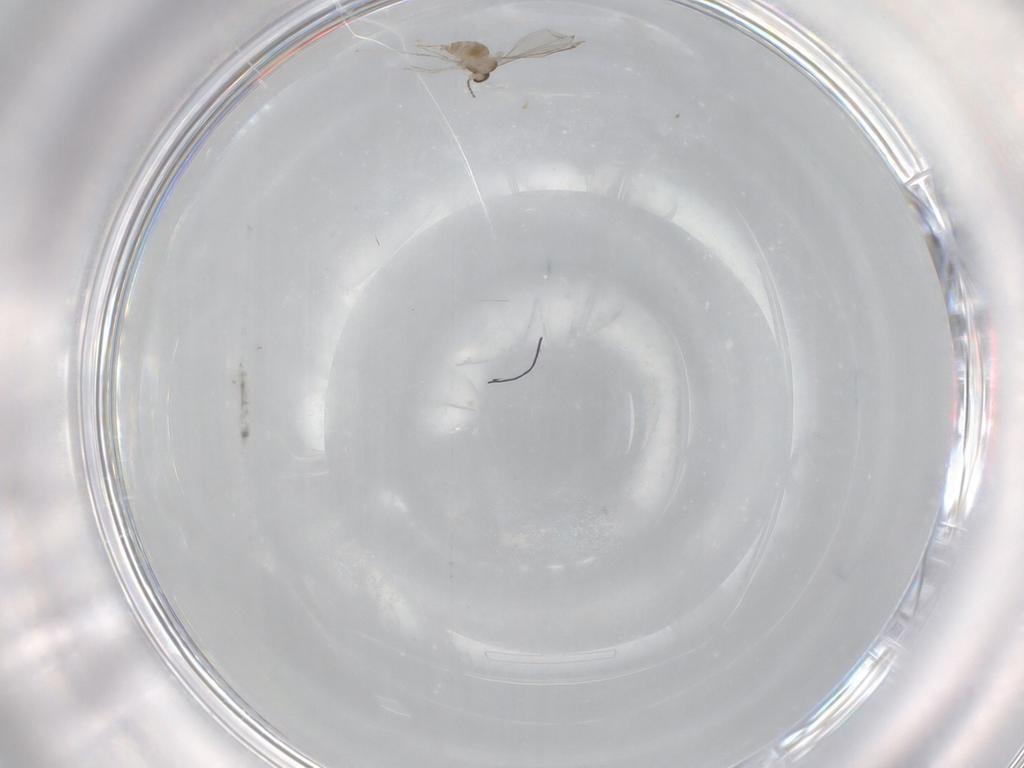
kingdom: Animalia
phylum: Arthropoda
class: Insecta
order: Diptera
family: Cecidomyiidae
